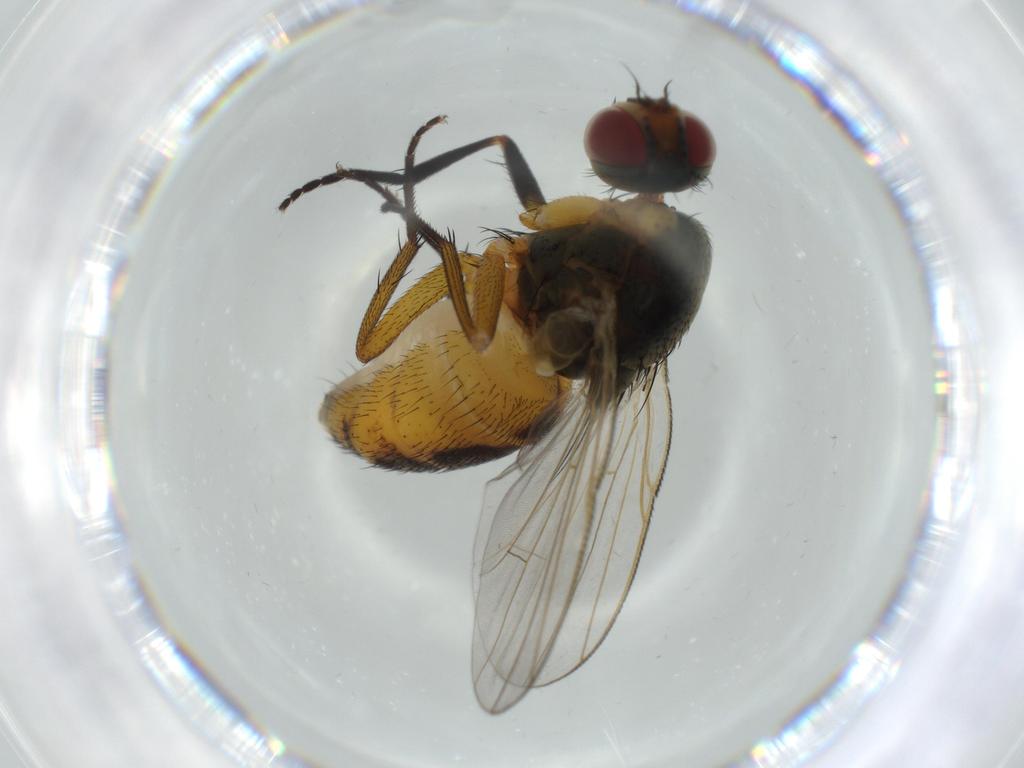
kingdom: Animalia
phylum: Arthropoda
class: Insecta
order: Diptera
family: Muscidae
